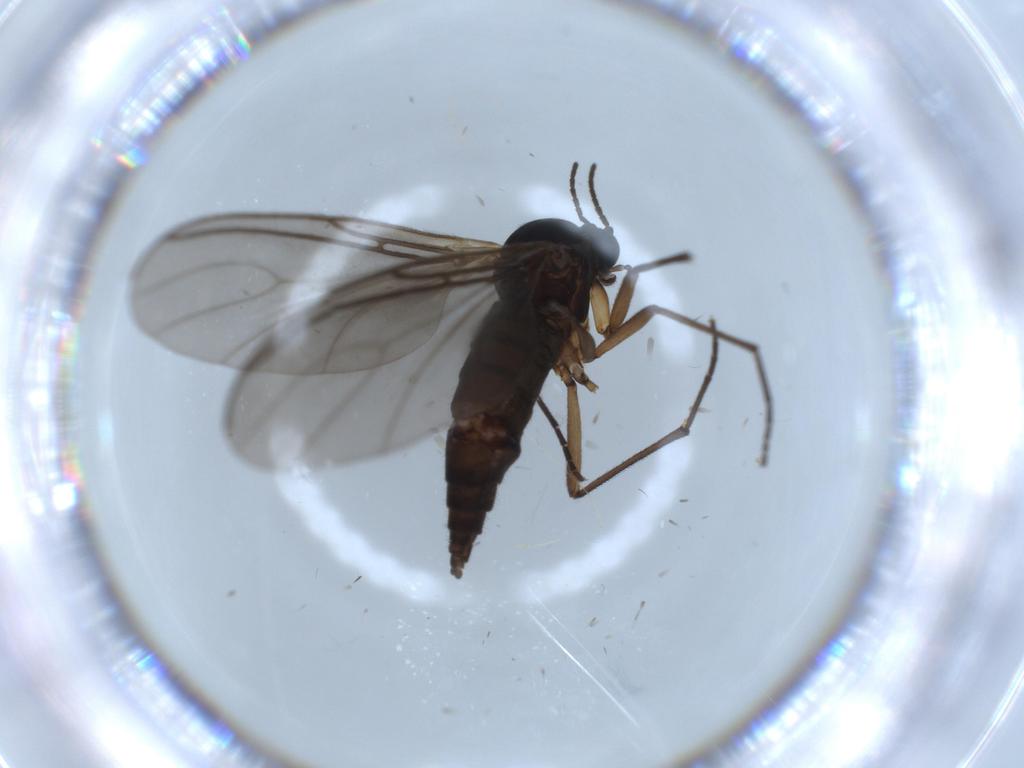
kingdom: Animalia
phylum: Arthropoda
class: Insecta
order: Diptera
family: Sciaridae
